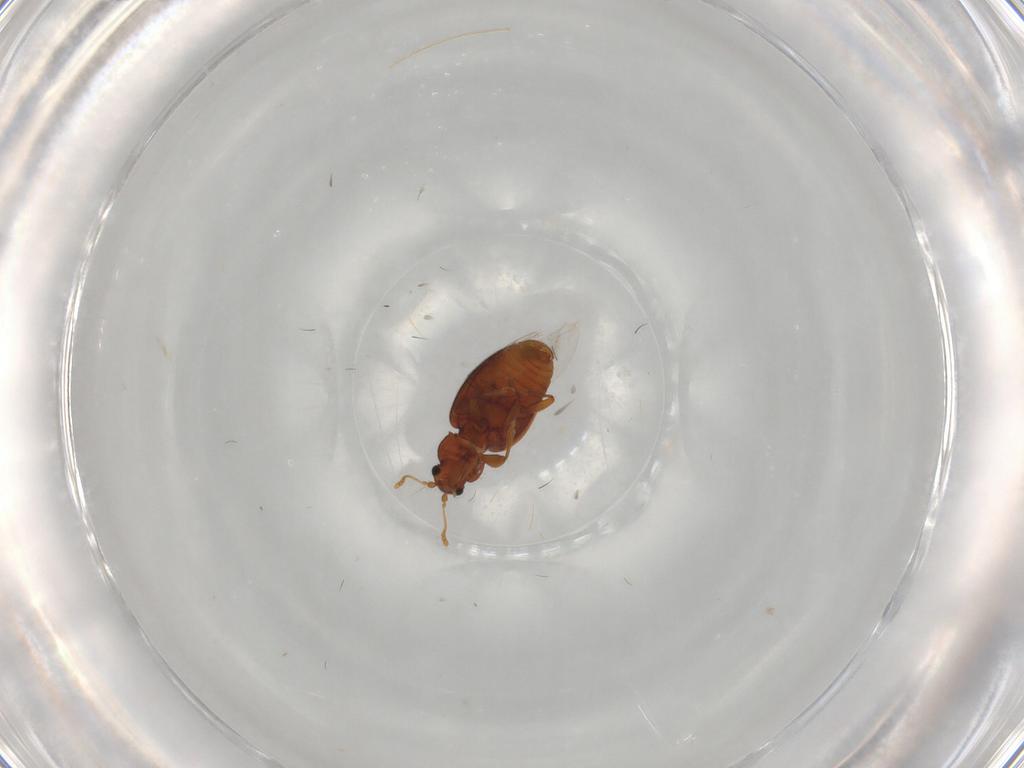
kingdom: Animalia
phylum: Arthropoda
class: Insecta
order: Coleoptera
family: Latridiidae
